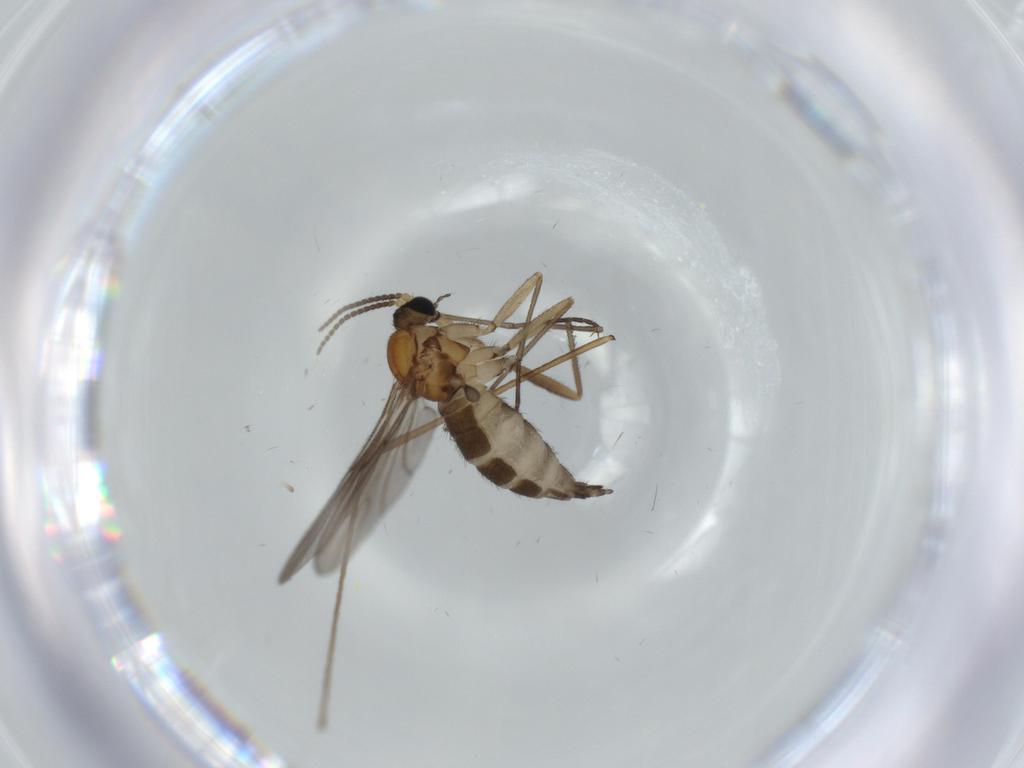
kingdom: Animalia
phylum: Arthropoda
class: Insecta
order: Diptera
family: Sciaridae
